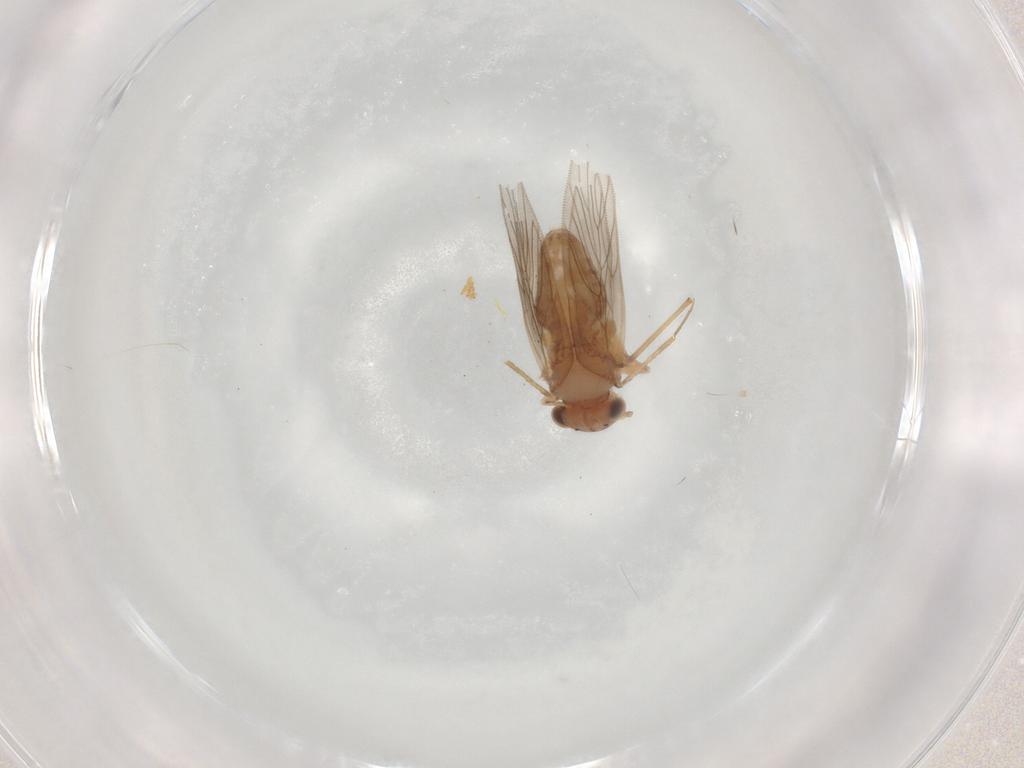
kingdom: Animalia
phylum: Arthropoda
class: Insecta
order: Psocodea
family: Lepidopsocidae
